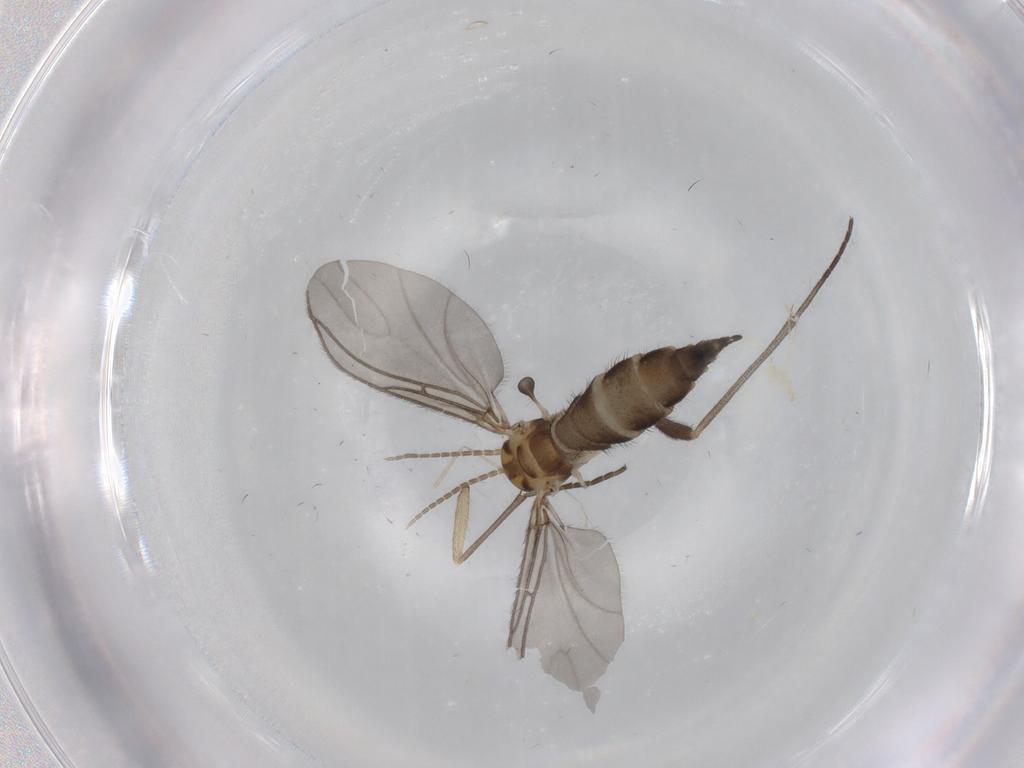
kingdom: Animalia
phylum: Arthropoda
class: Insecta
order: Diptera
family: Sciaridae
